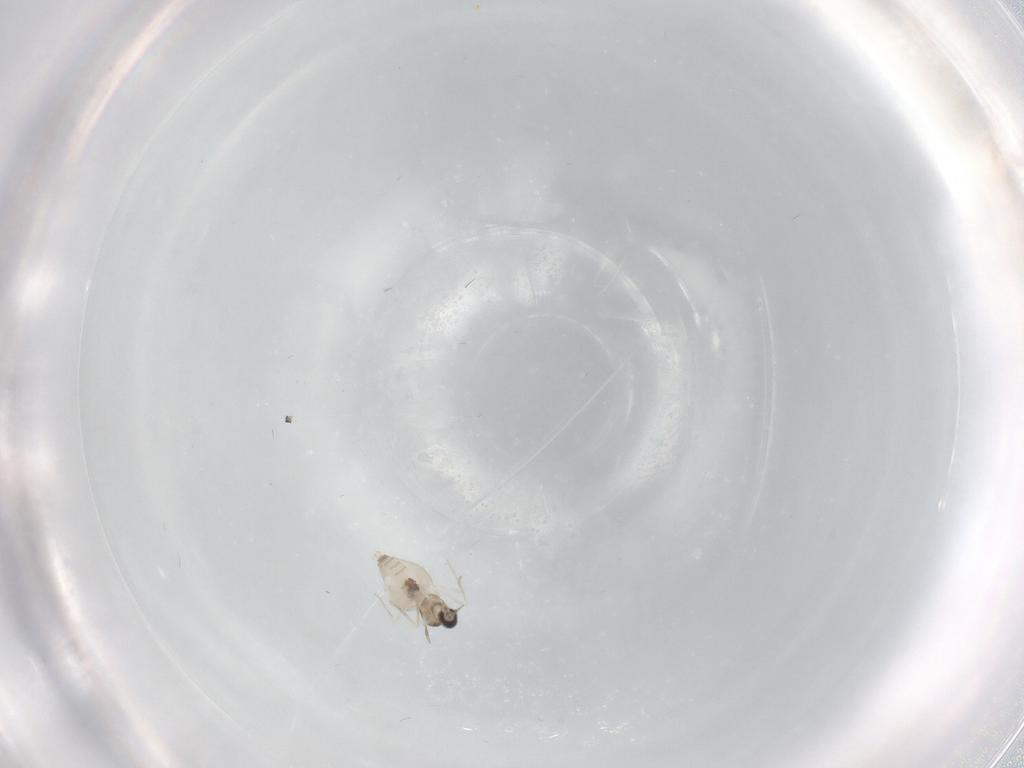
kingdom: Animalia
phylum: Arthropoda
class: Insecta
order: Diptera
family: Cecidomyiidae
